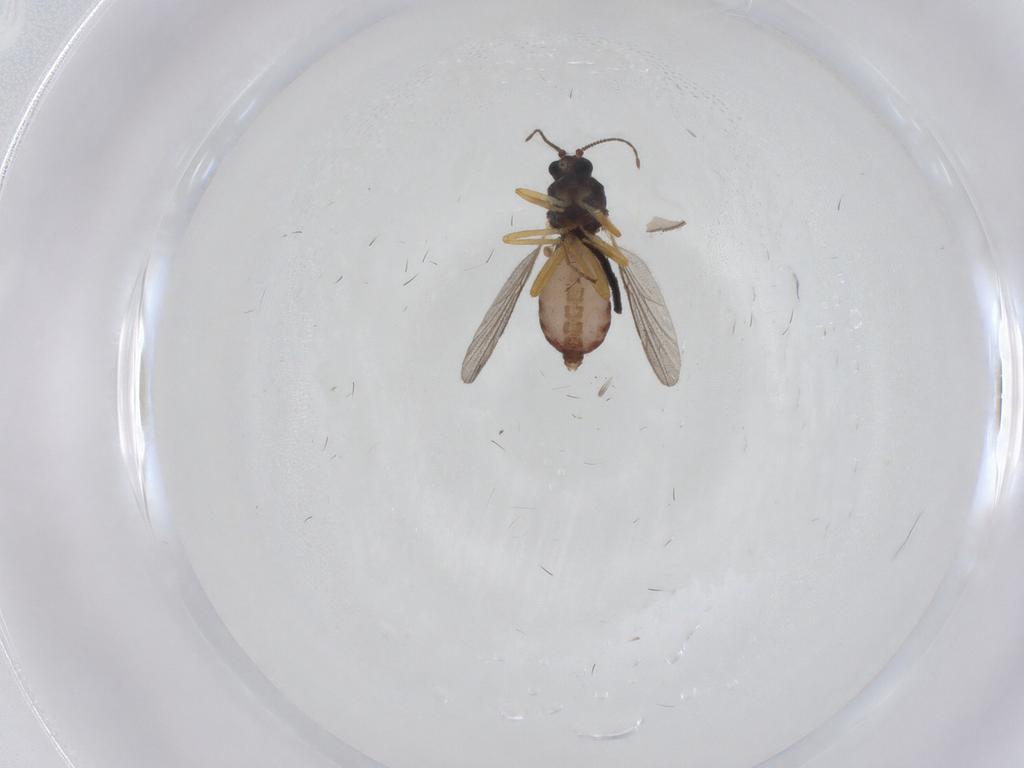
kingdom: Animalia
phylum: Arthropoda
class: Insecta
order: Diptera
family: Ceratopogonidae
